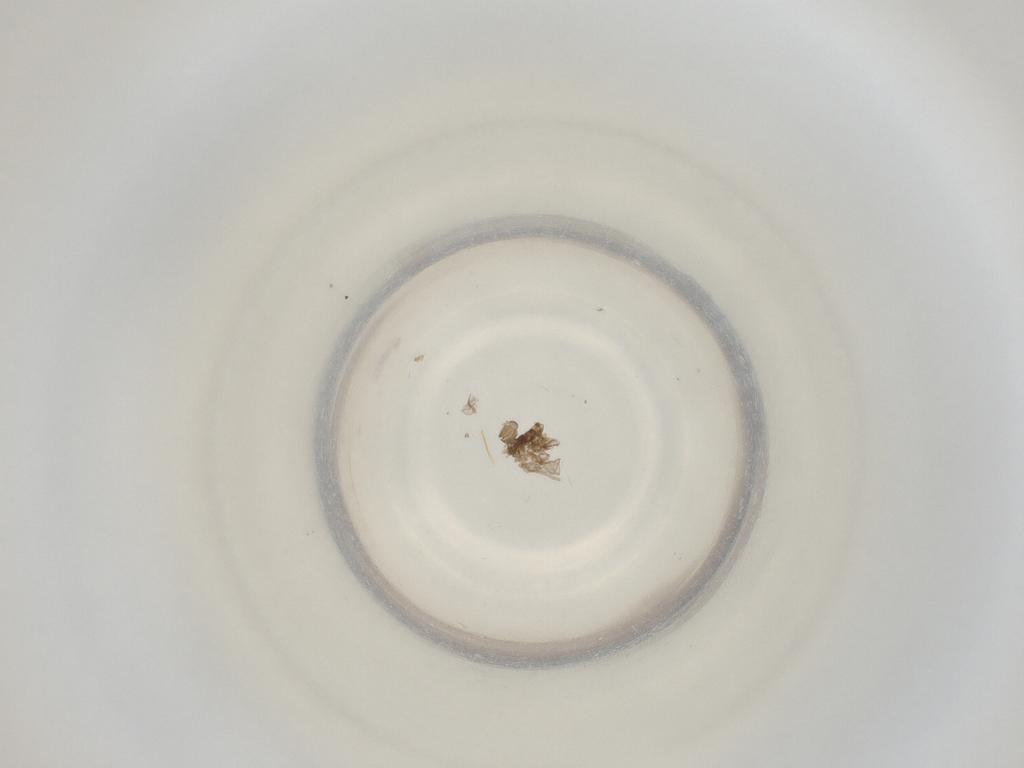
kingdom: Animalia
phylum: Arthropoda
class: Insecta
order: Diptera
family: Cecidomyiidae
